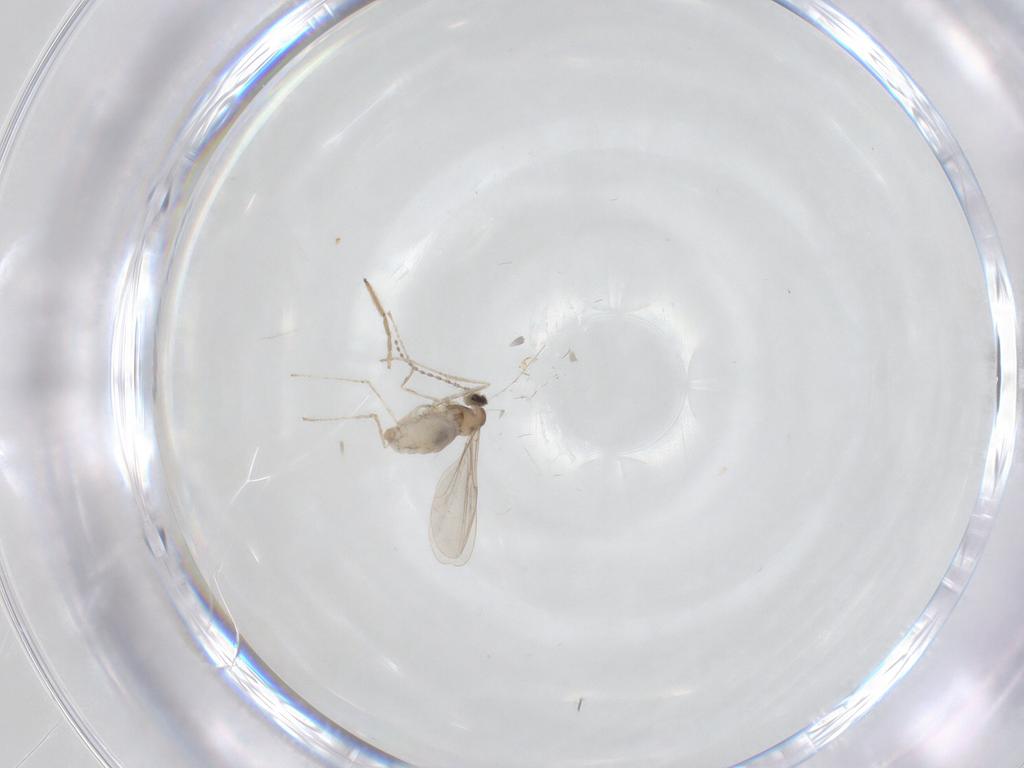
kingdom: Animalia
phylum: Arthropoda
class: Insecta
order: Diptera
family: Cecidomyiidae
